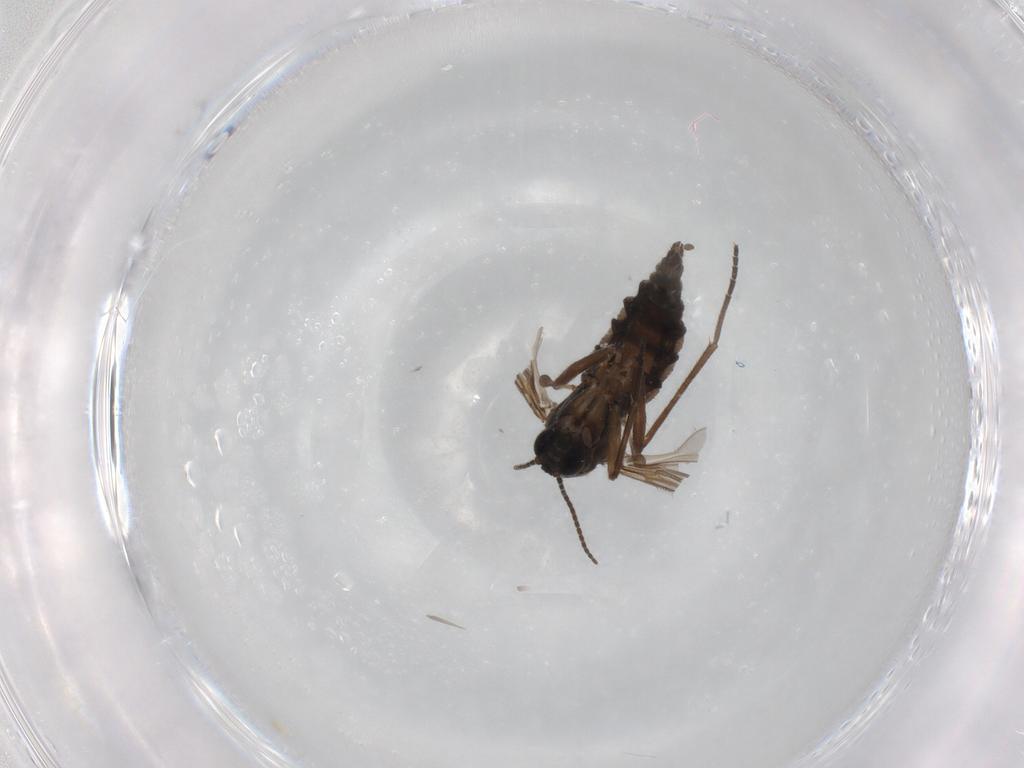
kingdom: Animalia
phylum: Arthropoda
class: Insecta
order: Diptera
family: Sciaridae
